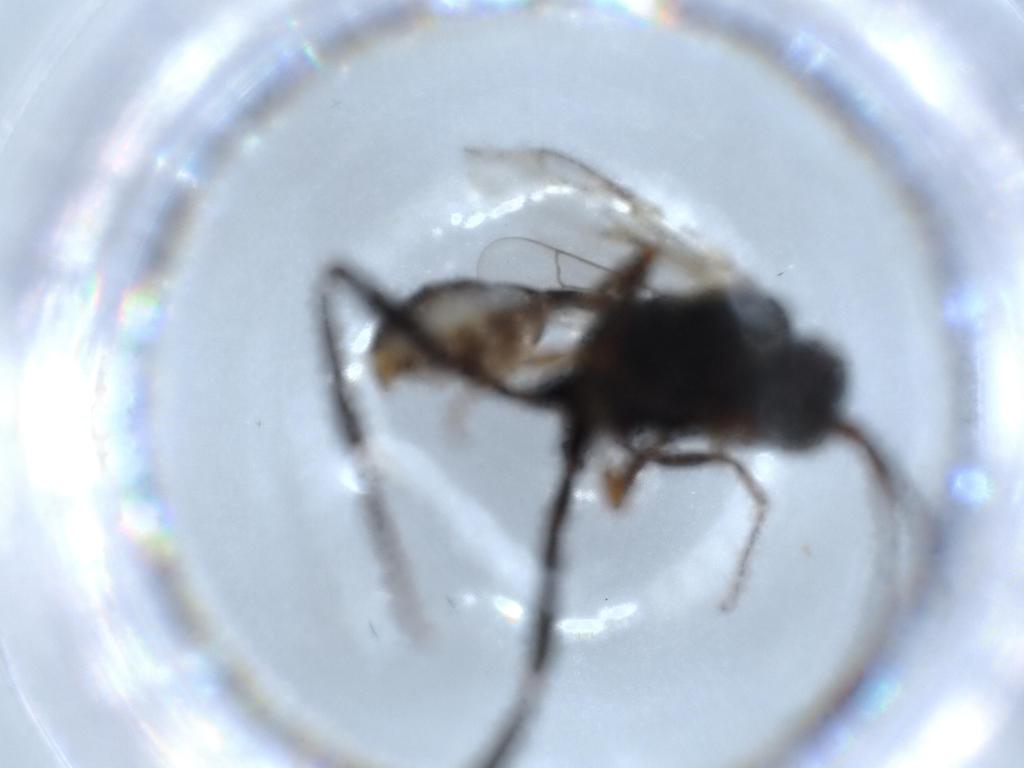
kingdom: Animalia
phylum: Arthropoda
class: Insecta
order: Hymenoptera
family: Evaniidae
